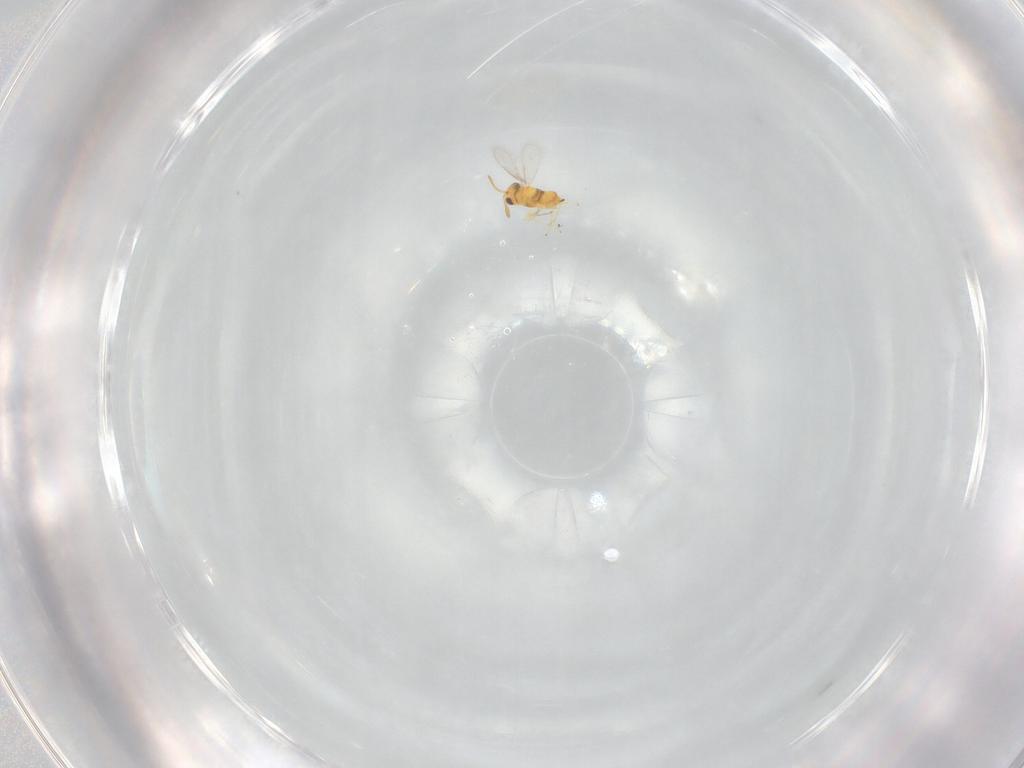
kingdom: Animalia
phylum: Arthropoda
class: Insecta
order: Hymenoptera
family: Aphelinidae
